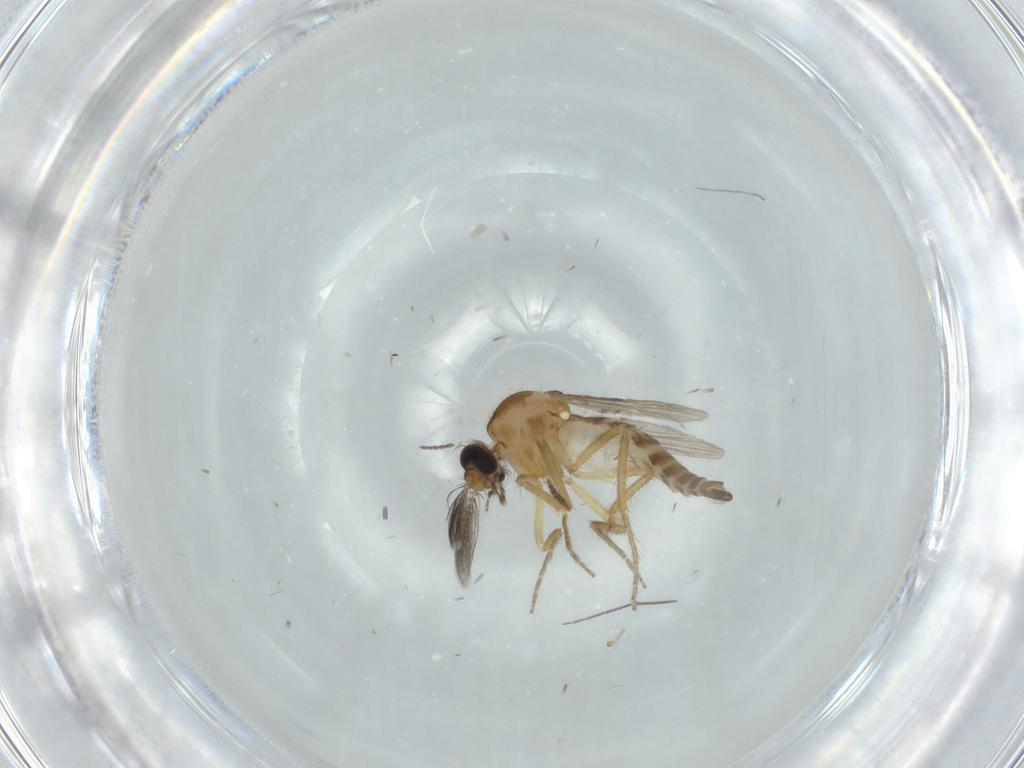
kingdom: Animalia
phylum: Arthropoda
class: Insecta
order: Diptera
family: Ceratopogonidae
